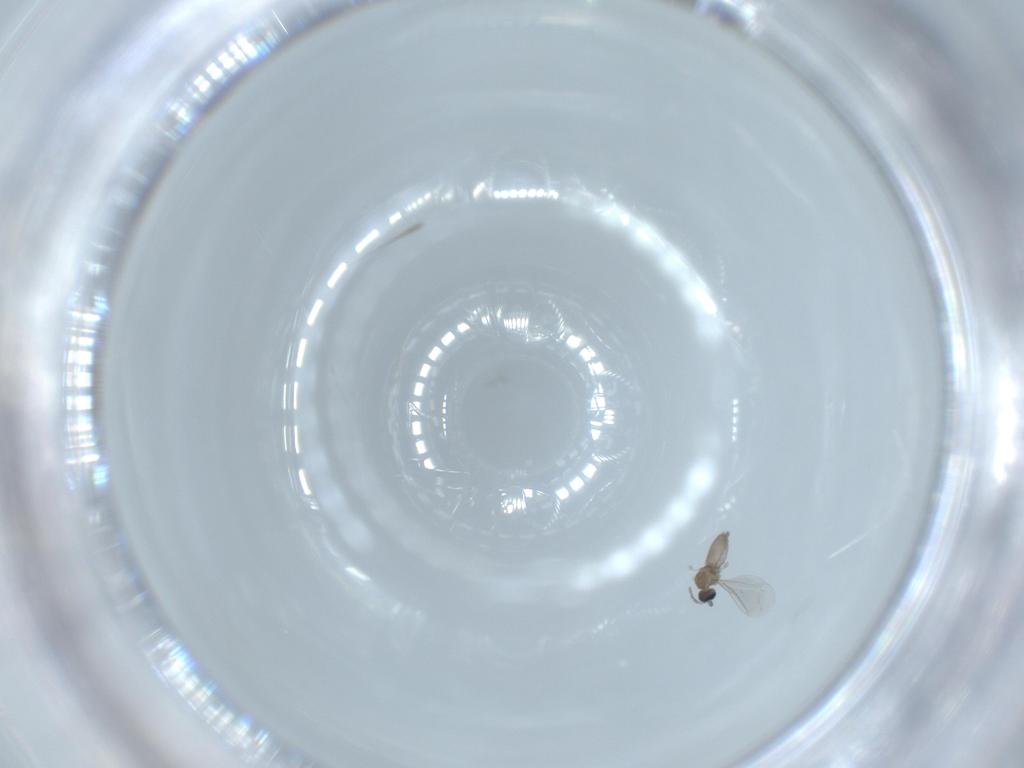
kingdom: Animalia
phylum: Arthropoda
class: Insecta
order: Diptera
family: Cecidomyiidae
